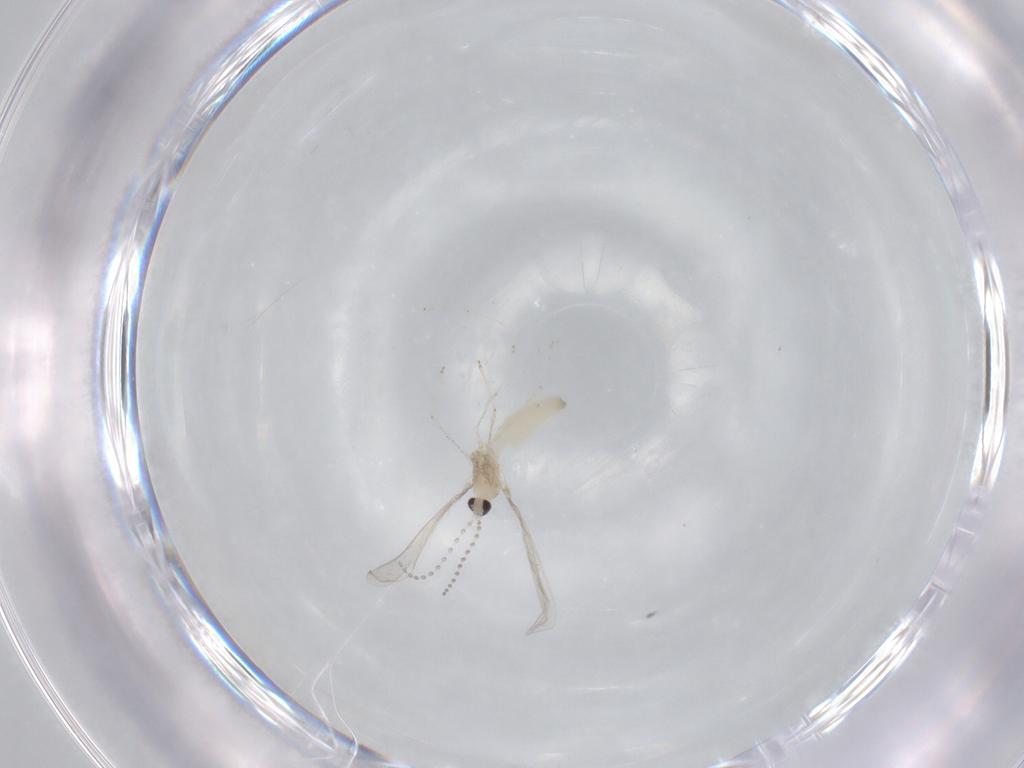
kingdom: Animalia
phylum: Arthropoda
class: Insecta
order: Diptera
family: Cecidomyiidae
